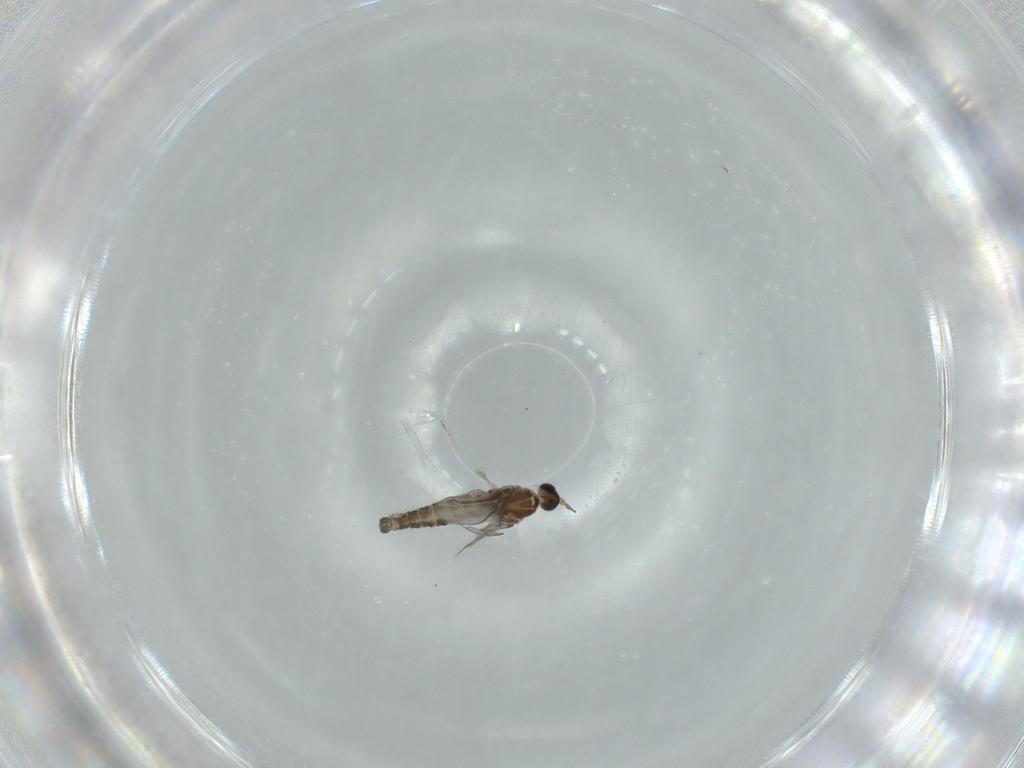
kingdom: Animalia
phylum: Arthropoda
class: Insecta
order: Diptera
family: Cecidomyiidae
